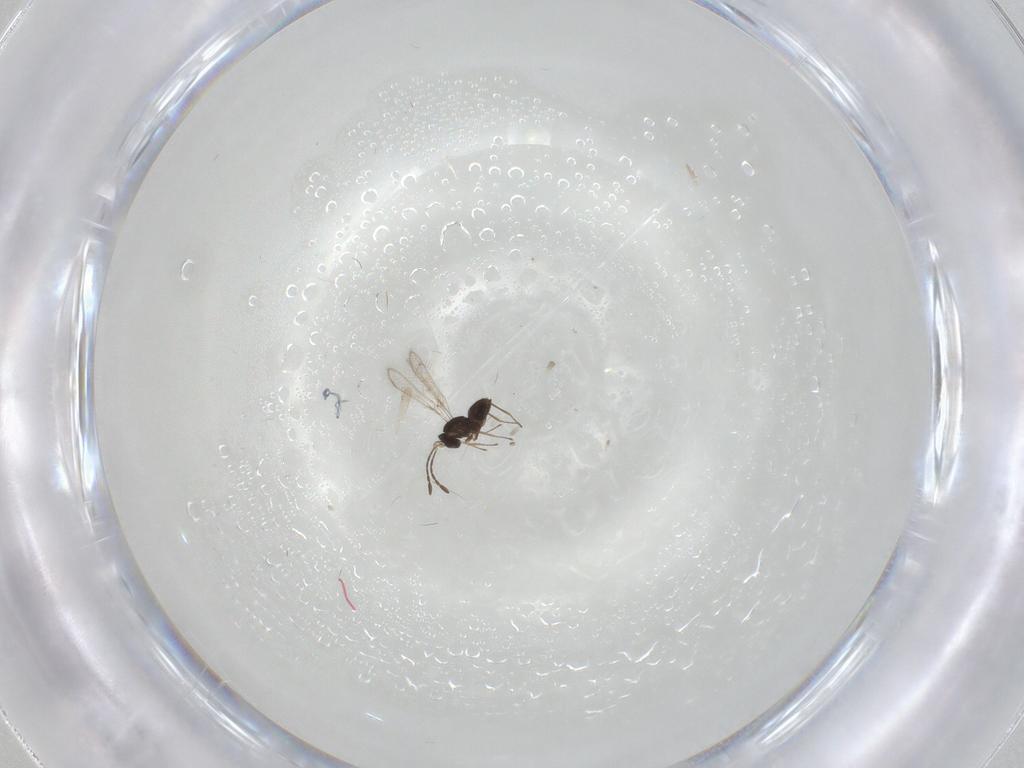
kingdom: Animalia
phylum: Arthropoda
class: Insecta
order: Hymenoptera
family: Mymaridae
